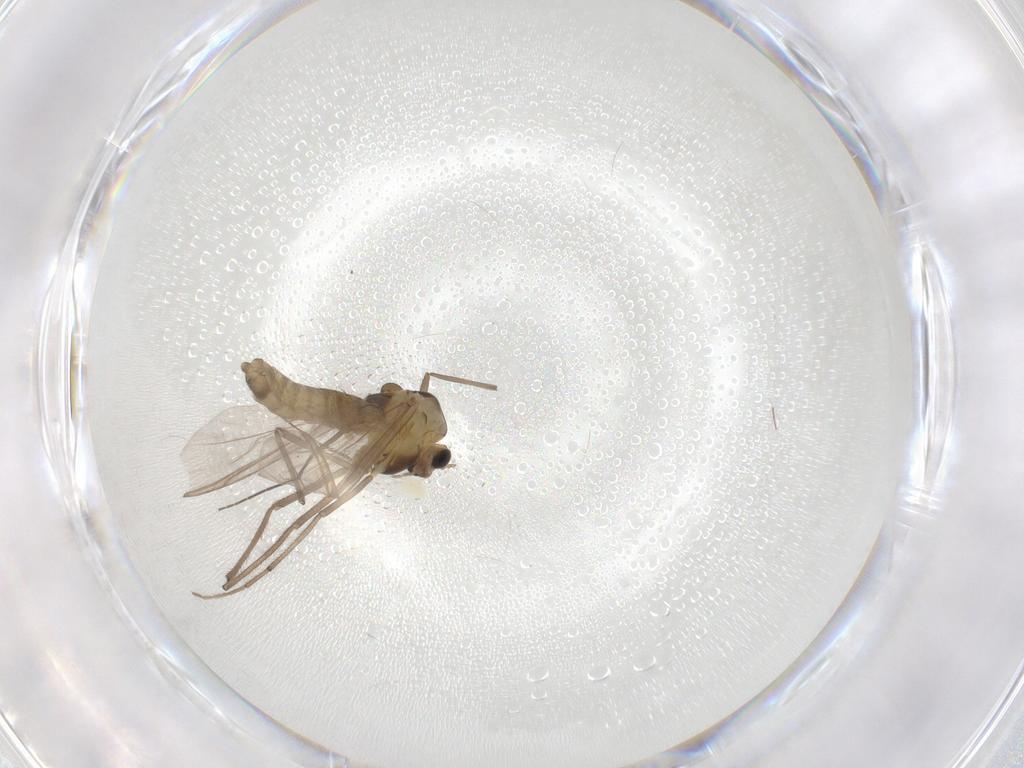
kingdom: Animalia
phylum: Arthropoda
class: Insecta
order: Diptera
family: Chironomidae
